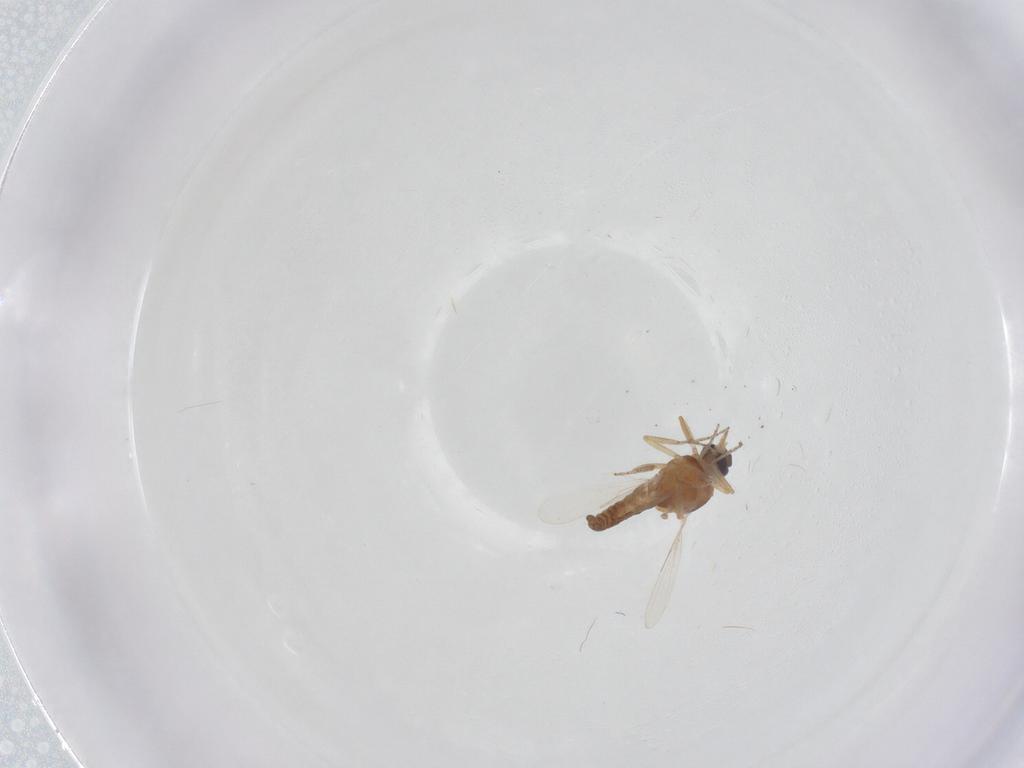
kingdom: Animalia
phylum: Arthropoda
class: Insecta
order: Diptera
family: Ceratopogonidae
